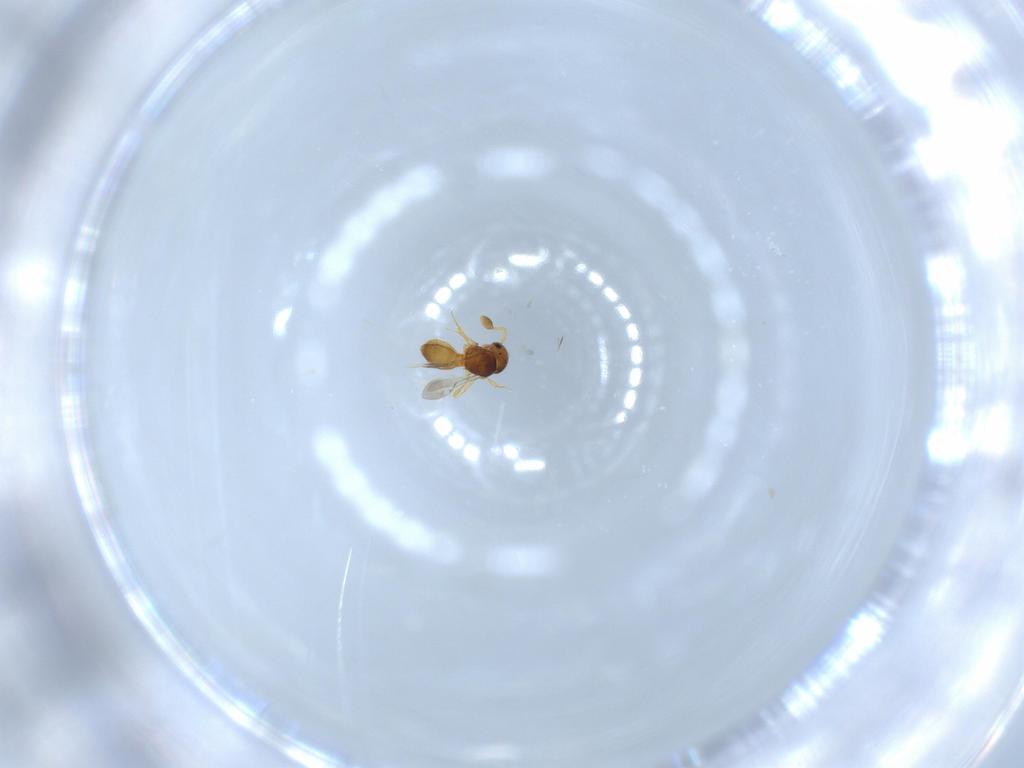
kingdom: Animalia
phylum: Arthropoda
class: Insecta
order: Hymenoptera
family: Scelionidae
